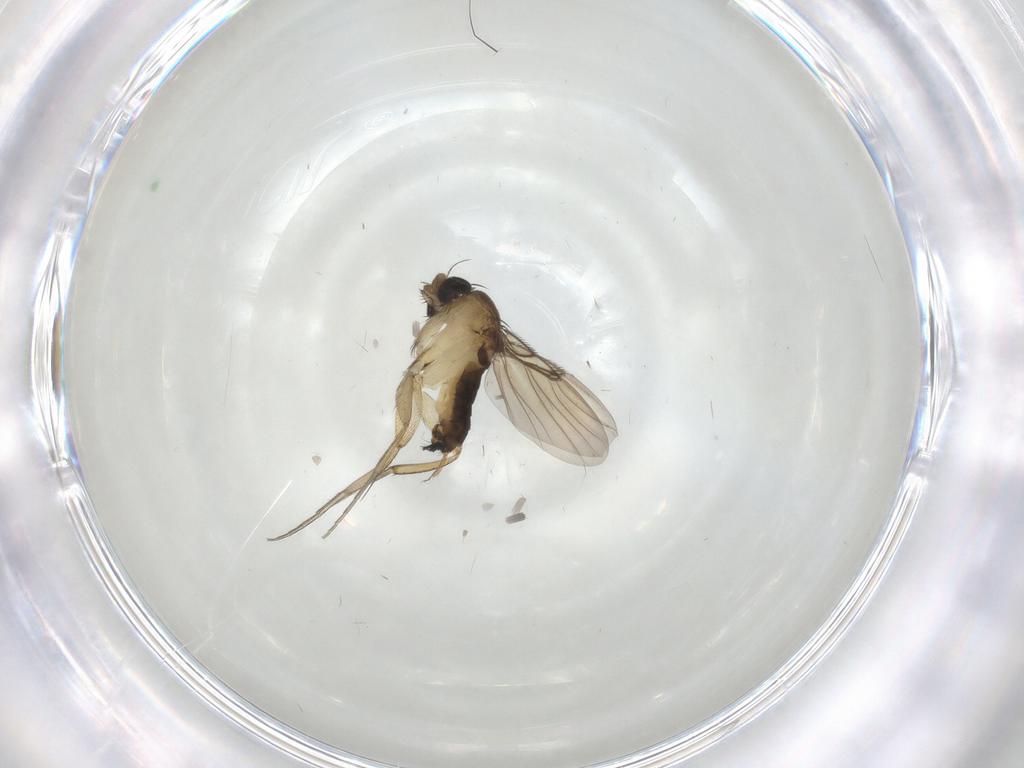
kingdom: Animalia
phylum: Arthropoda
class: Insecta
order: Diptera
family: Phoridae
